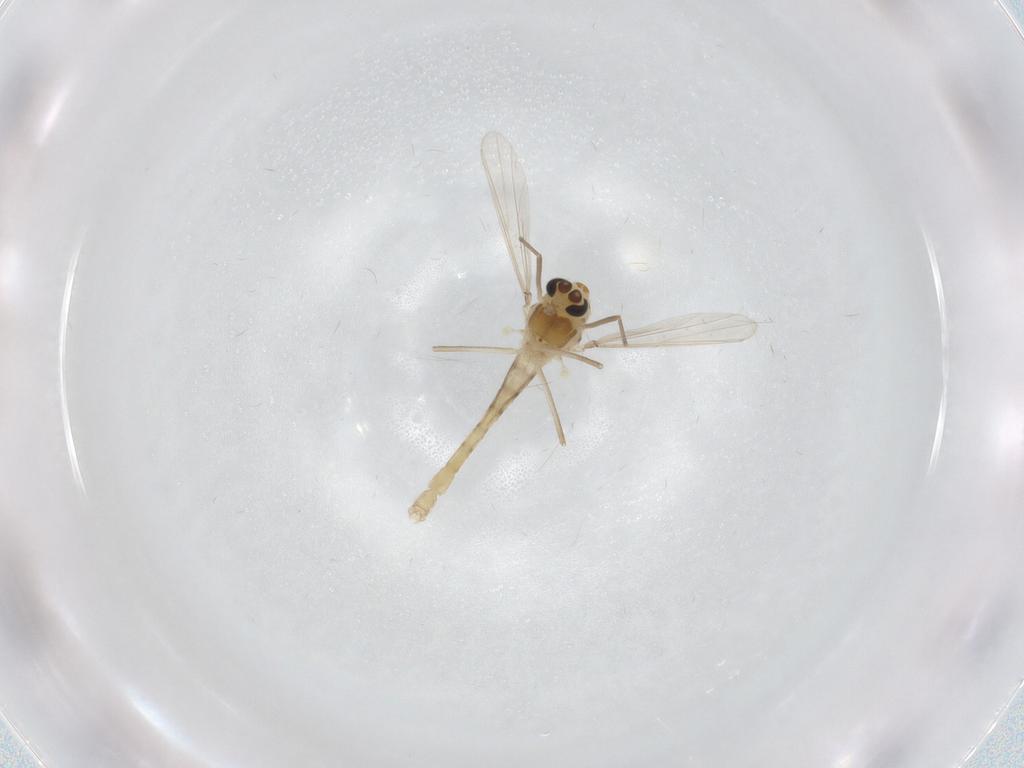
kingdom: Animalia
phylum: Arthropoda
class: Insecta
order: Diptera
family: Chironomidae
